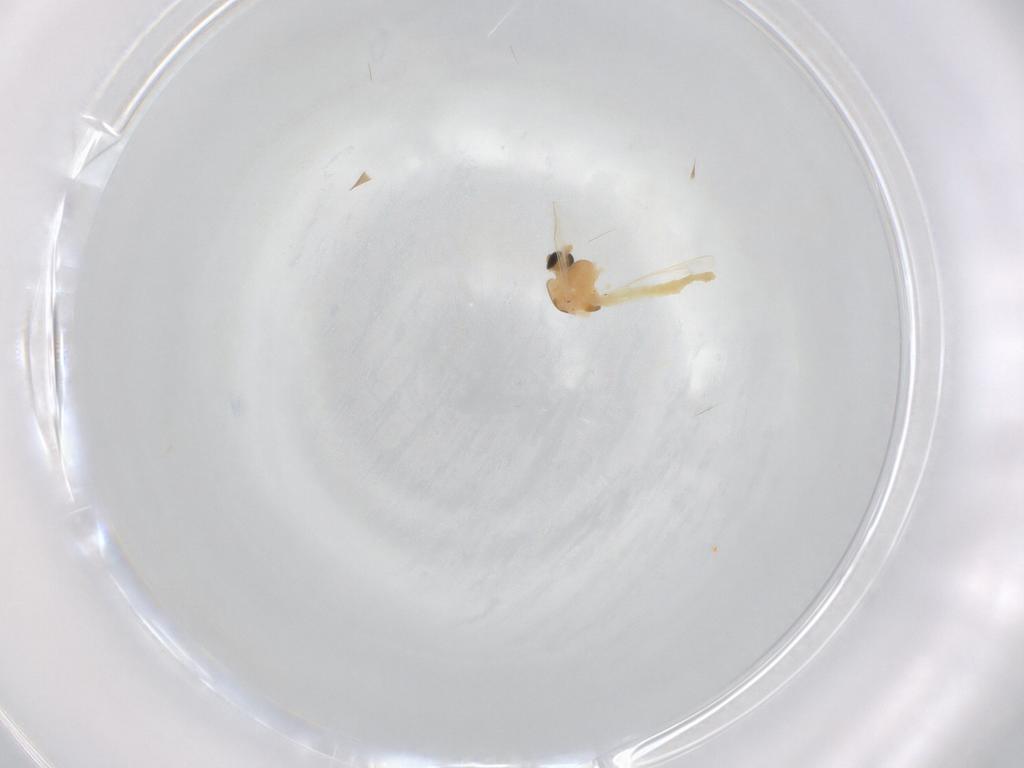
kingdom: Animalia
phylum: Arthropoda
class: Insecta
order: Diptera
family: Chironomidae
